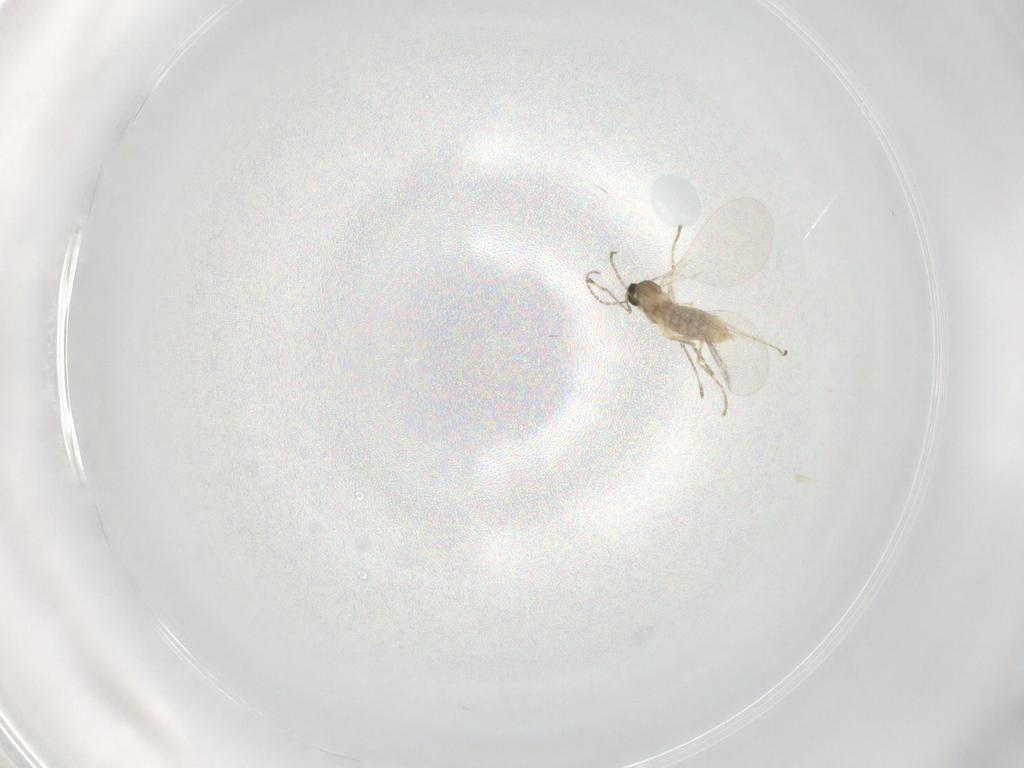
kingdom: Animalia
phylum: Arthropoda
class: Insecta
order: Diptera
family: Cecidomyiidae
